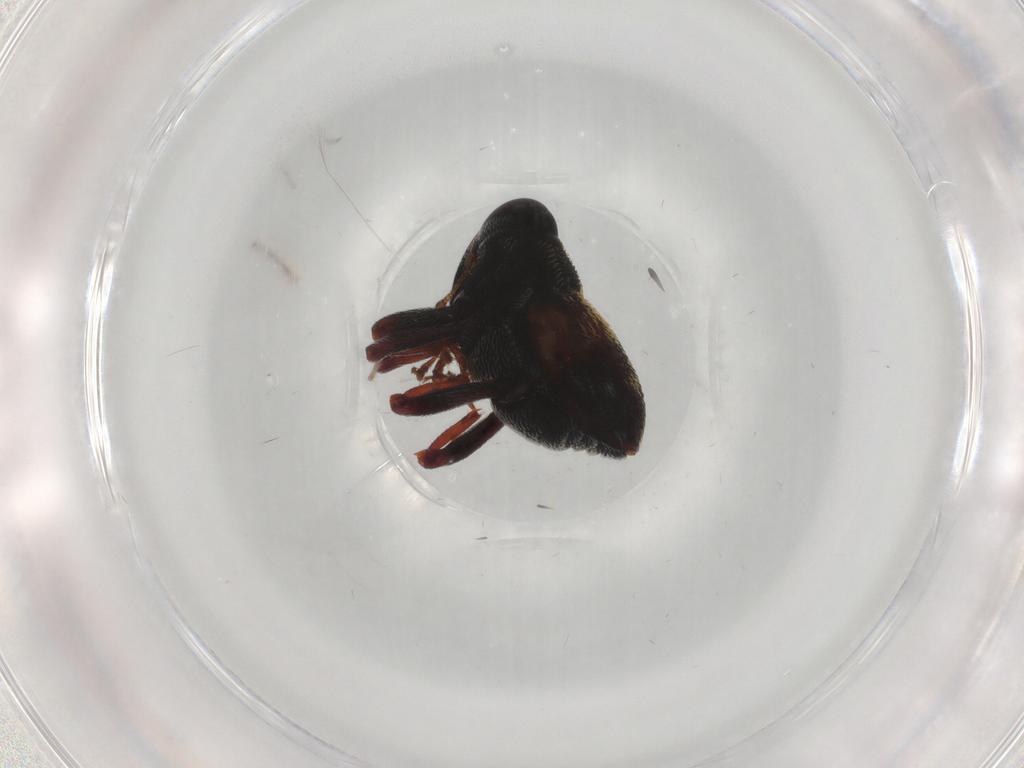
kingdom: Animalia
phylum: Arthropoda
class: Insecta
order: Coleoptera
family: Curculionidae
